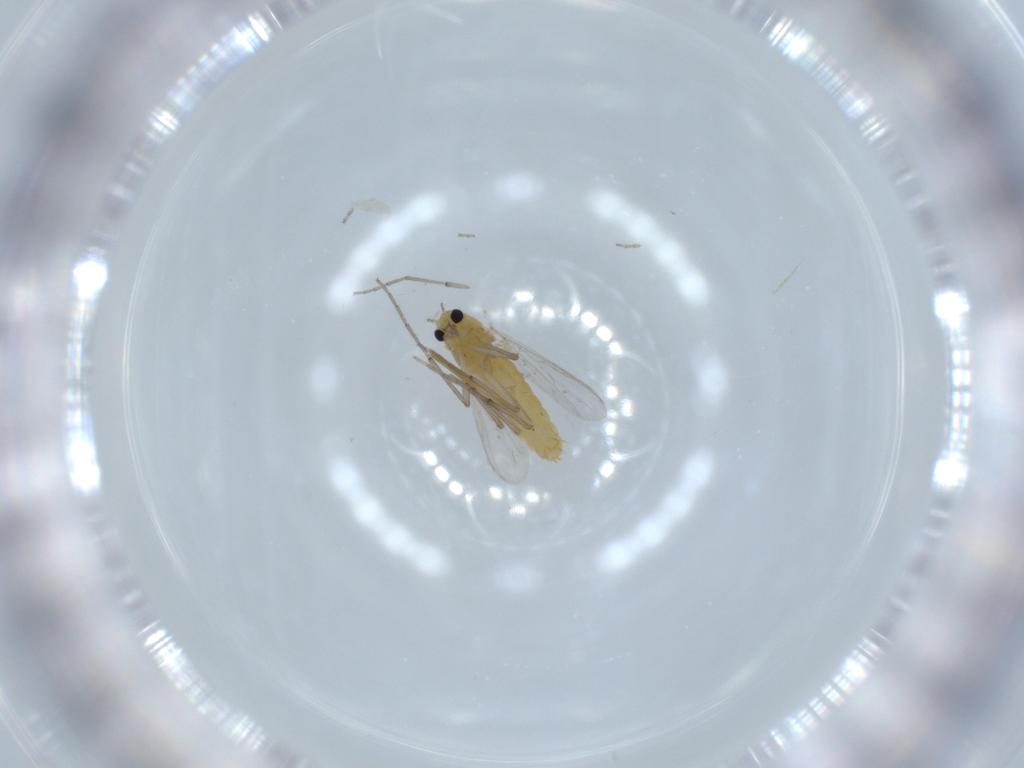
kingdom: Animalia
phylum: Arthropoda
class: Insecta
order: Diptera
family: Chironomidae
